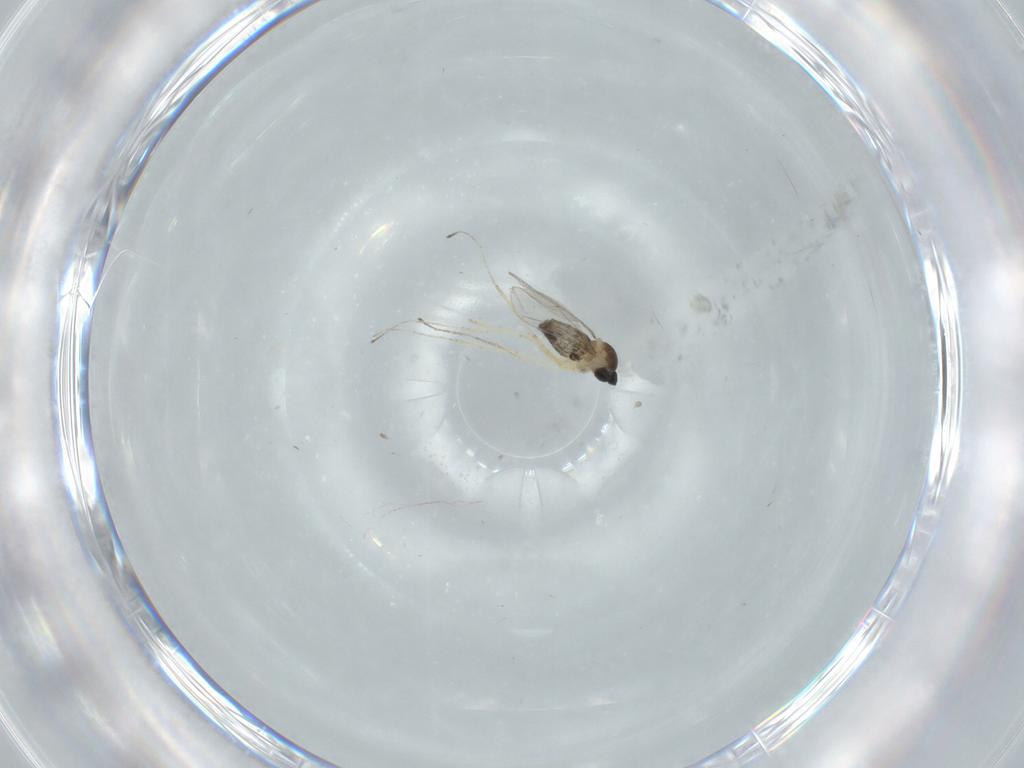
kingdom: Animalia
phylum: Arthropoda
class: Insecta
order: Diptera
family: Cecidomyiidae
